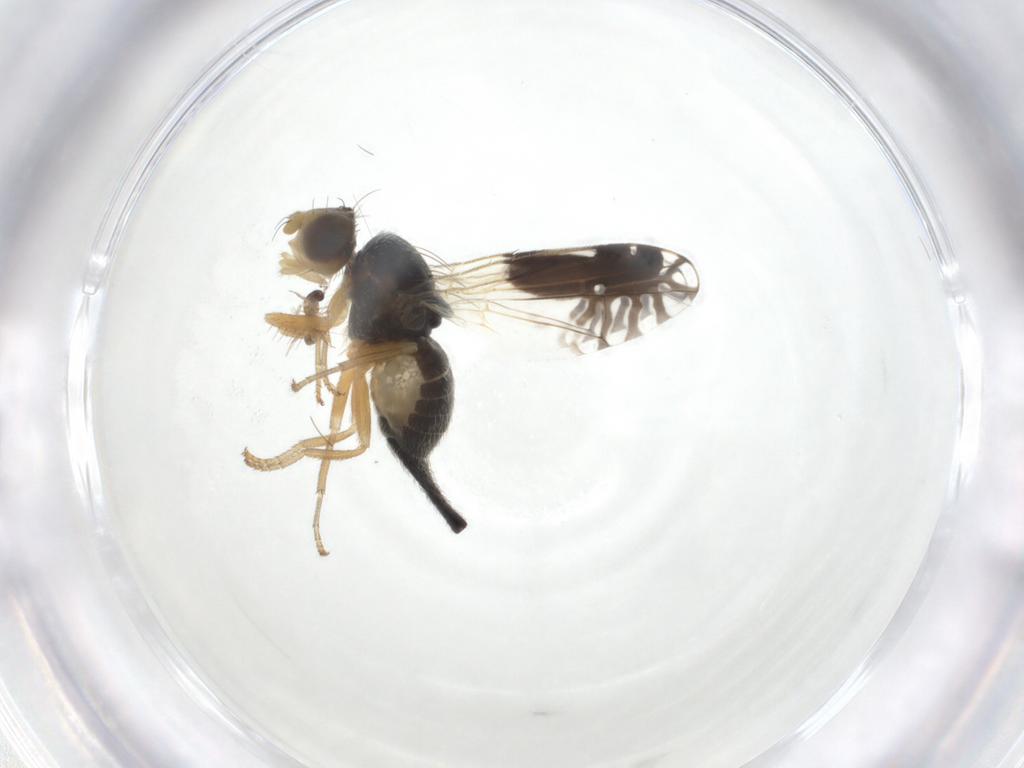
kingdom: Animalia
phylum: Arthropoda
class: Insecta
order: Diptera
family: Tephritidae
